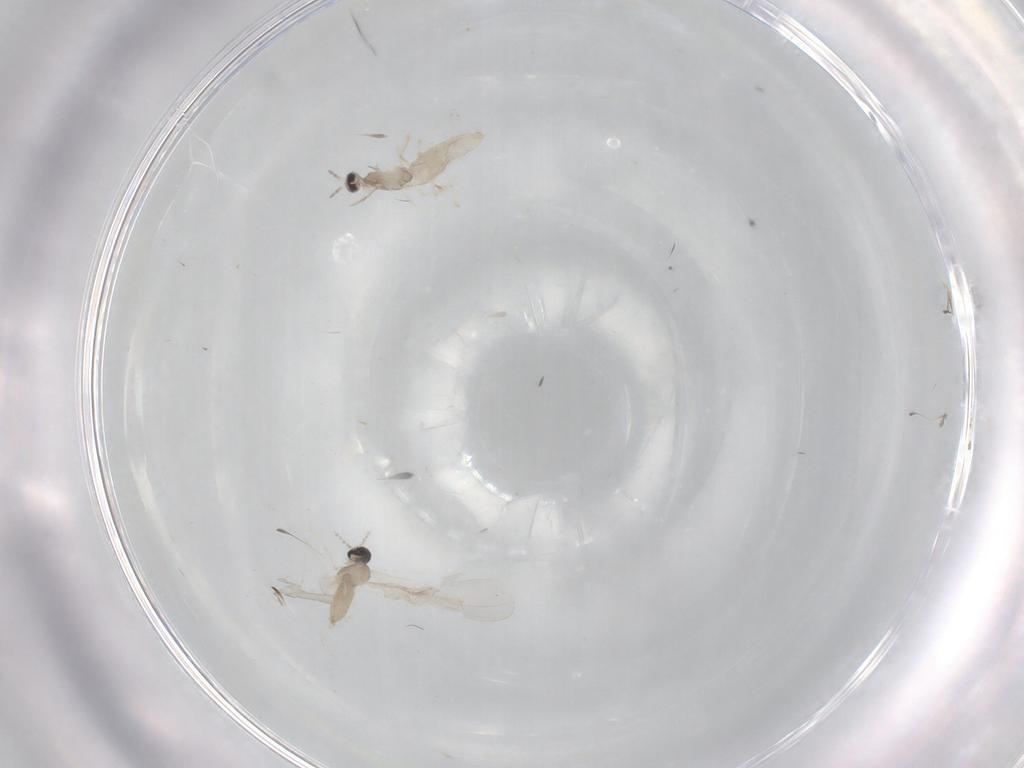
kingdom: Animalia
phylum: Arthropoda
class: Insecta
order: Diptera
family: Cecidomyiidae
